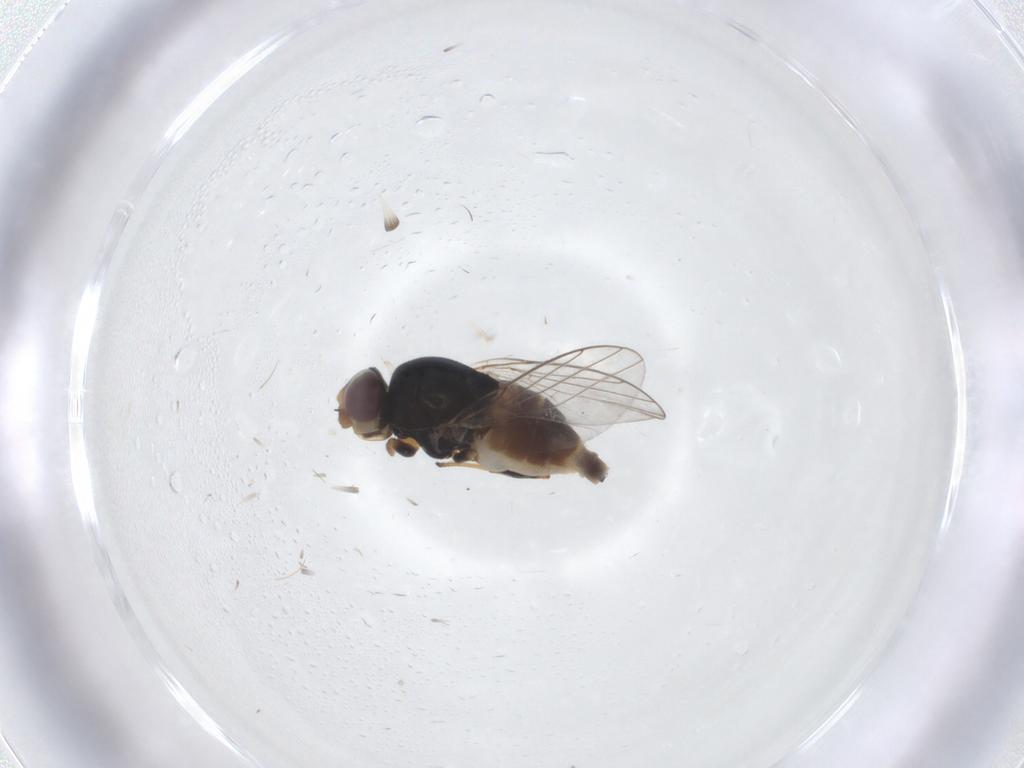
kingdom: Animalia
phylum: Arthropoda
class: Insecta
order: Diptera
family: Chloropidae
